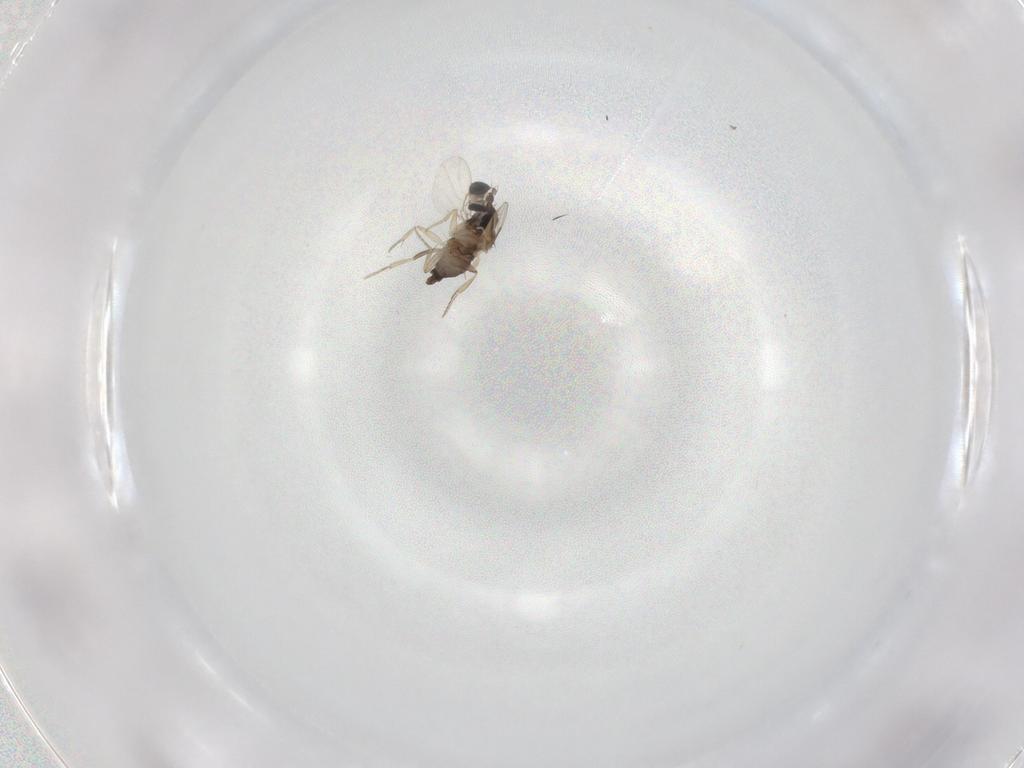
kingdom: Animalia
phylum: Arthropoda
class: Insecta
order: Diptera
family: Phoridae
